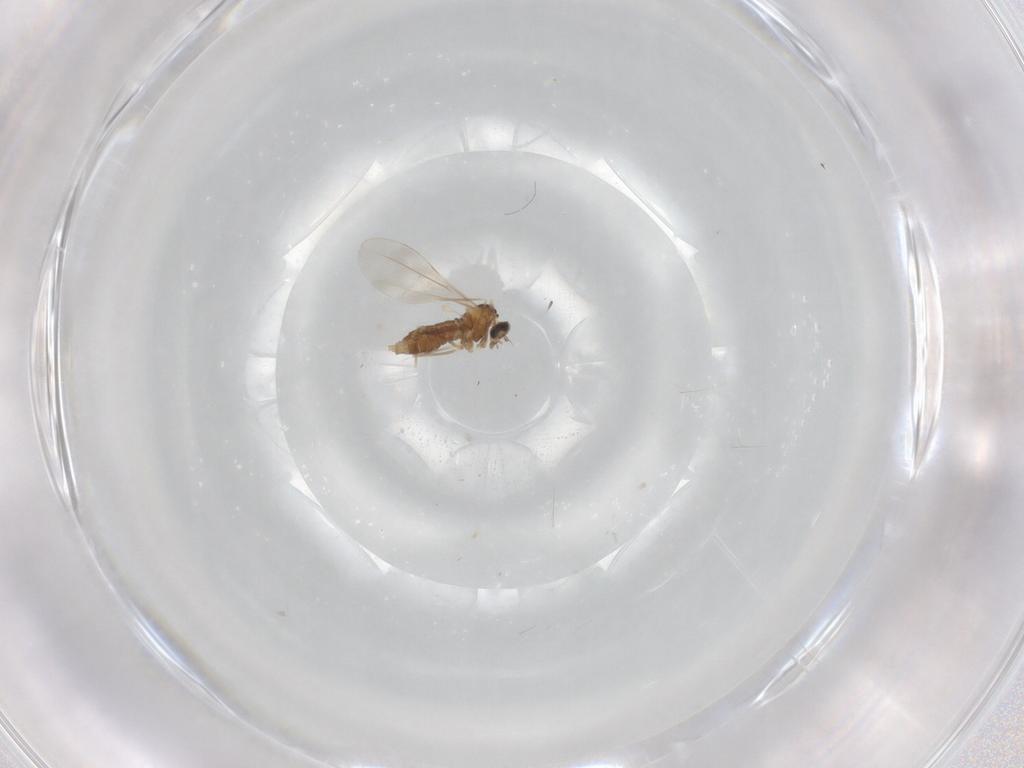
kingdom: Animalia
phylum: Arthropoda
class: Insecta
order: Diptera
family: Cecidomyiidae
